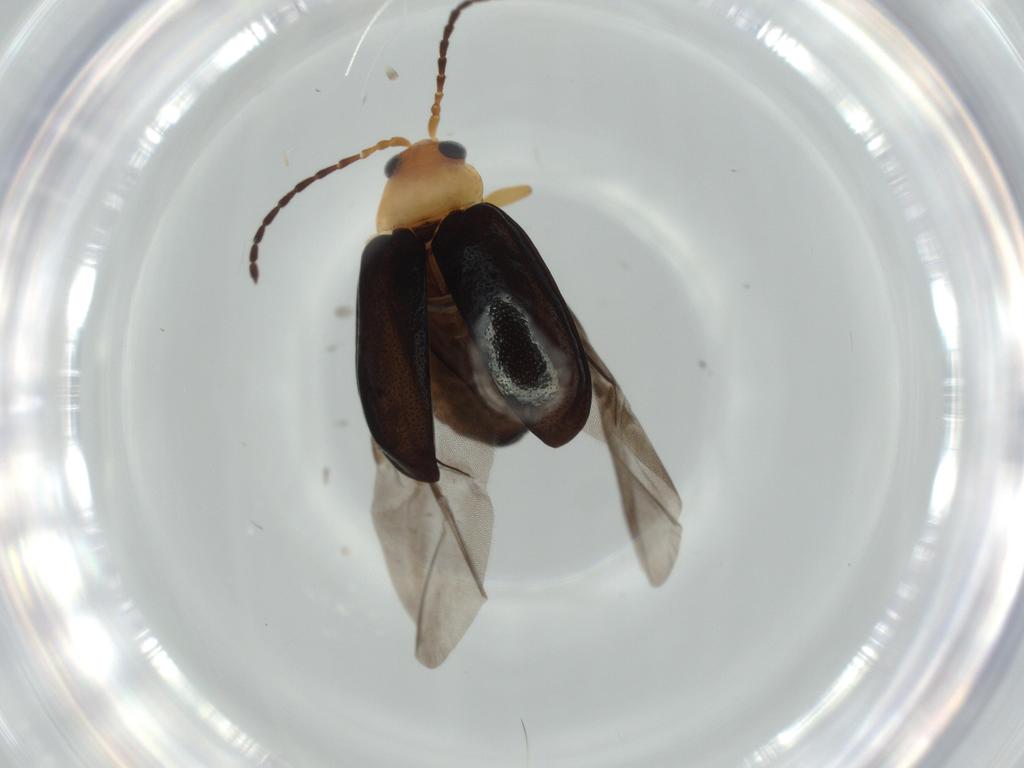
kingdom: Animalia
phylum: Arthropoda
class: Insecta
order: Coleoptera
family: Chrysomelidae
